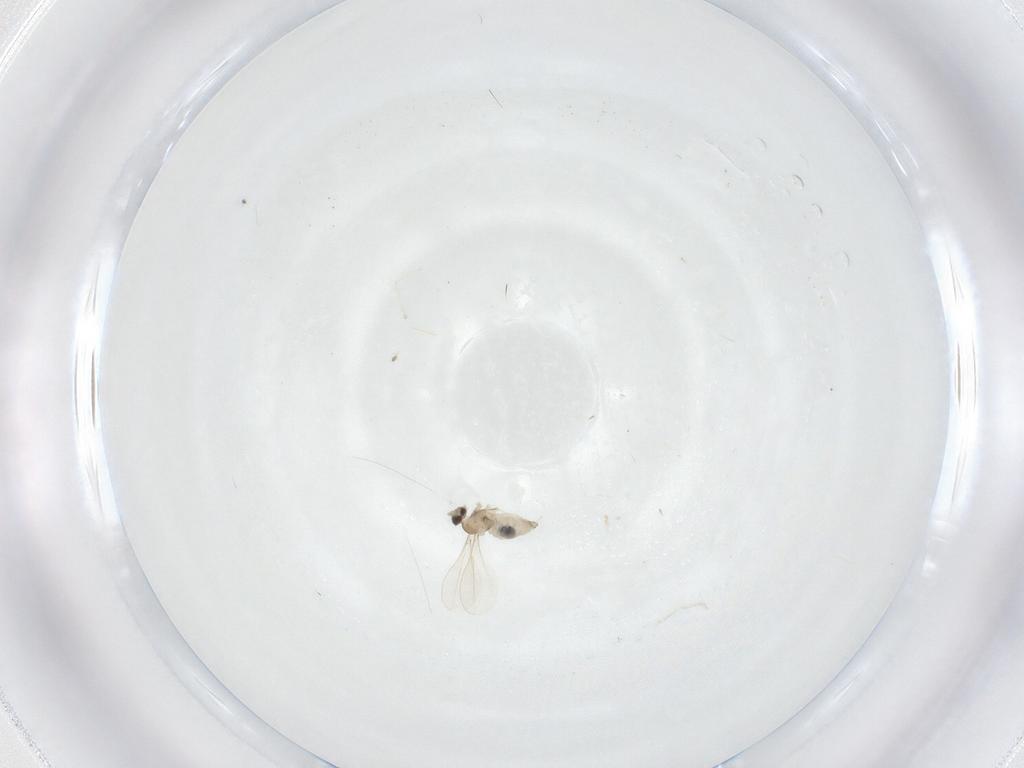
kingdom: Animalia
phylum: Arthropoda
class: Insecta
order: Diptera
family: Cecidomyiidae
